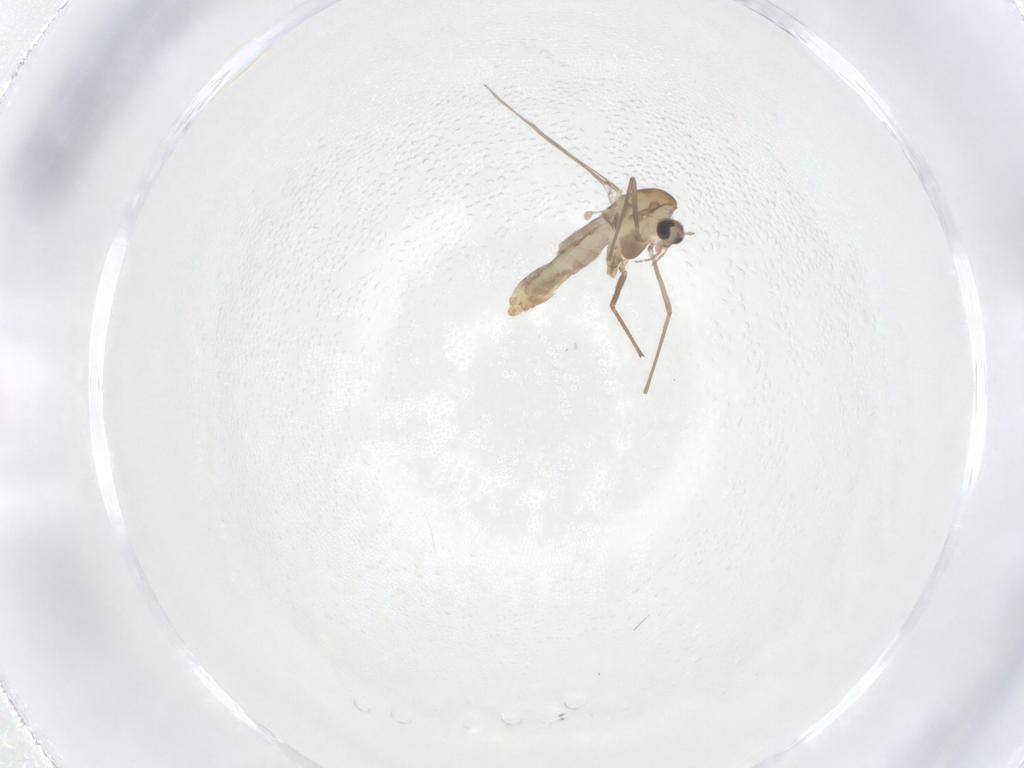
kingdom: Animalia
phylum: Arthropoda
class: Insecta
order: Diptera
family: Chironomidae
